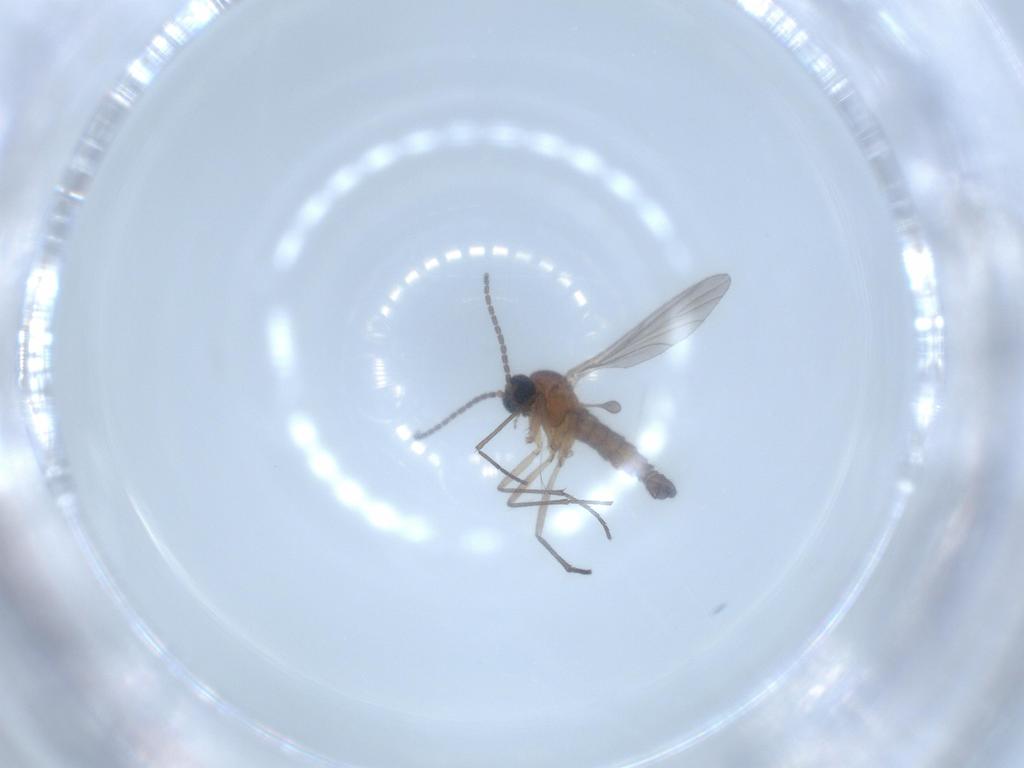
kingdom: Animalia
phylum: Arthropoda
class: Insecta
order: Diptera
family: Sciaridae
